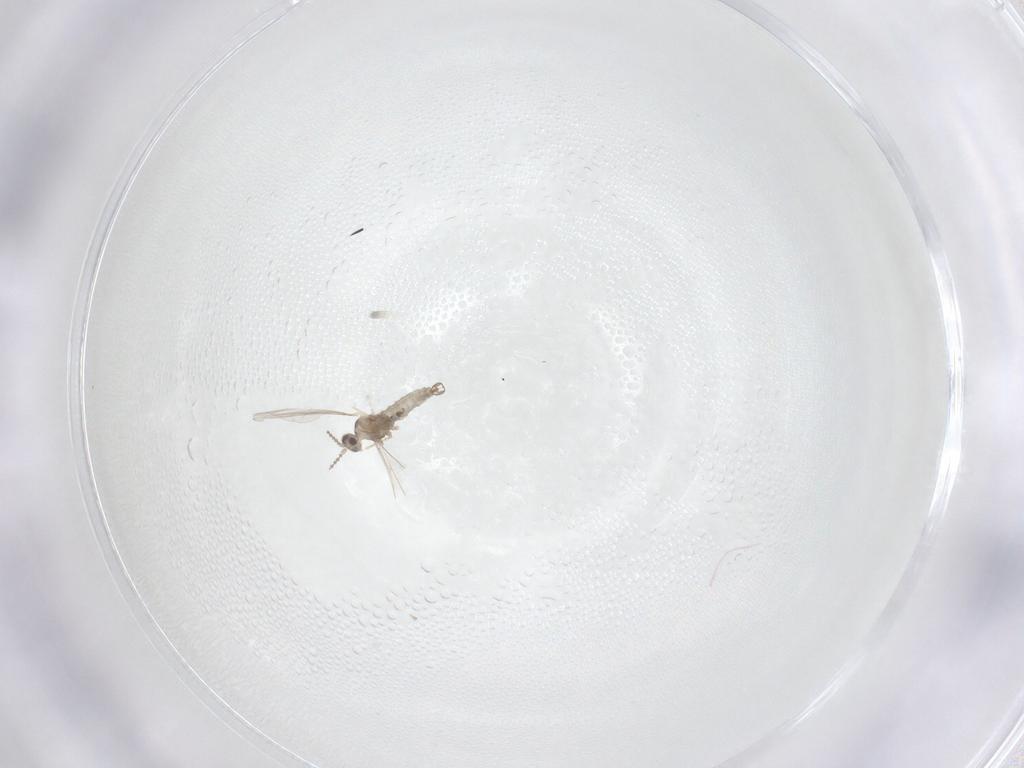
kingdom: Animalia
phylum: Arthropoda
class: Insecta
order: Diptera
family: Cecidomyiidae
